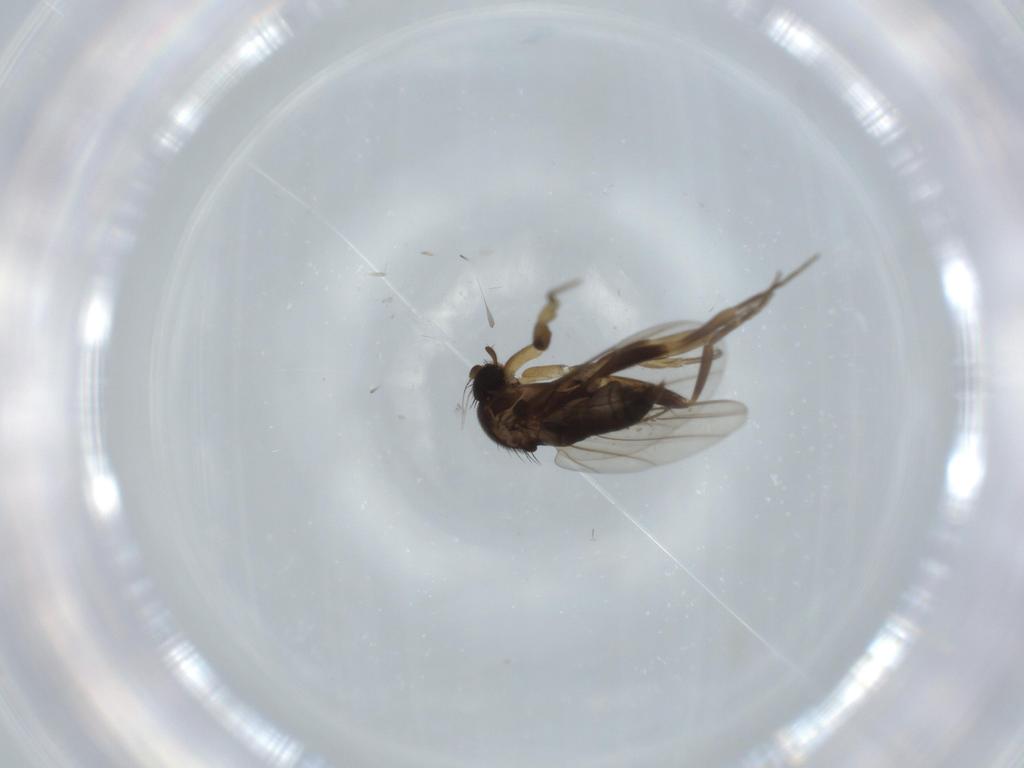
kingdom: Animalia
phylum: Arthropoda
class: Insecta
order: Diptera
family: Phoridae
